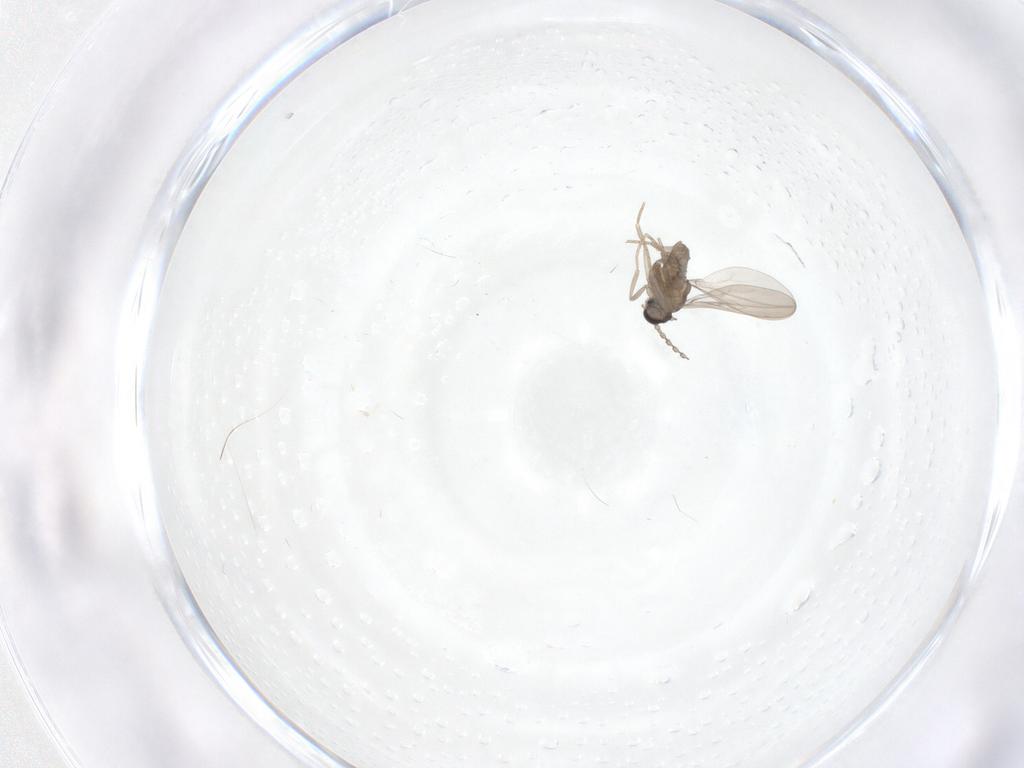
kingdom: Animalia
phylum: Arthropoda
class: Insecta
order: Diptera
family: Cecidomyiidae
